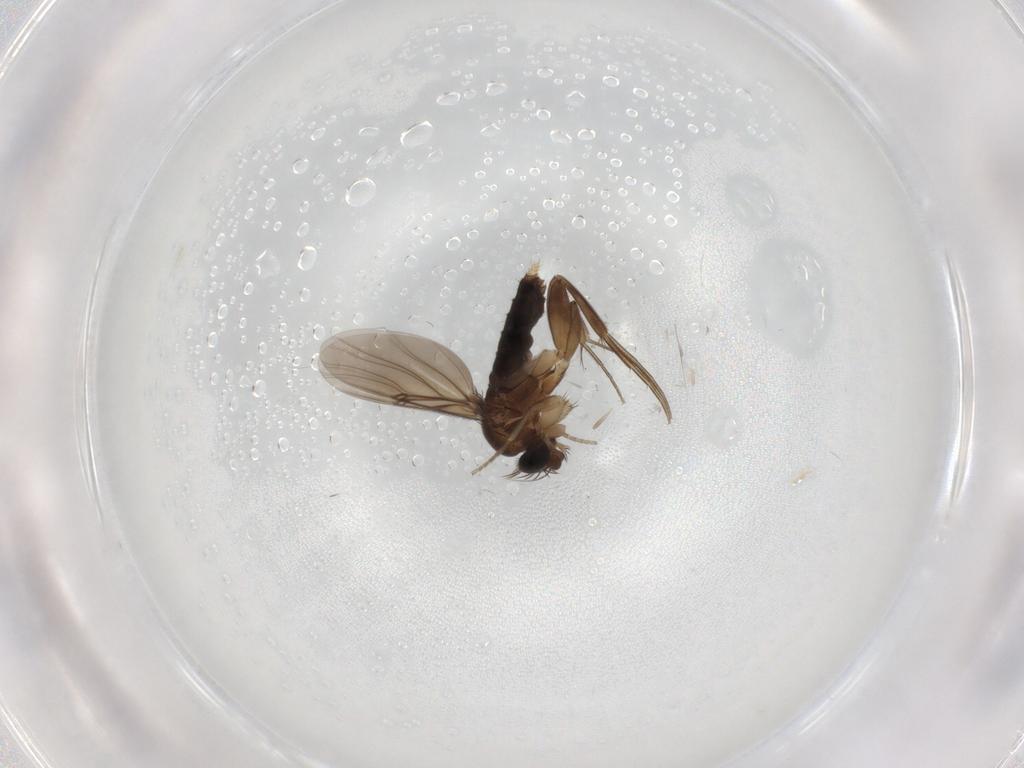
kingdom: Animalia
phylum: Arthropoda
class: Insecta
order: Diptera
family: Phoridae
